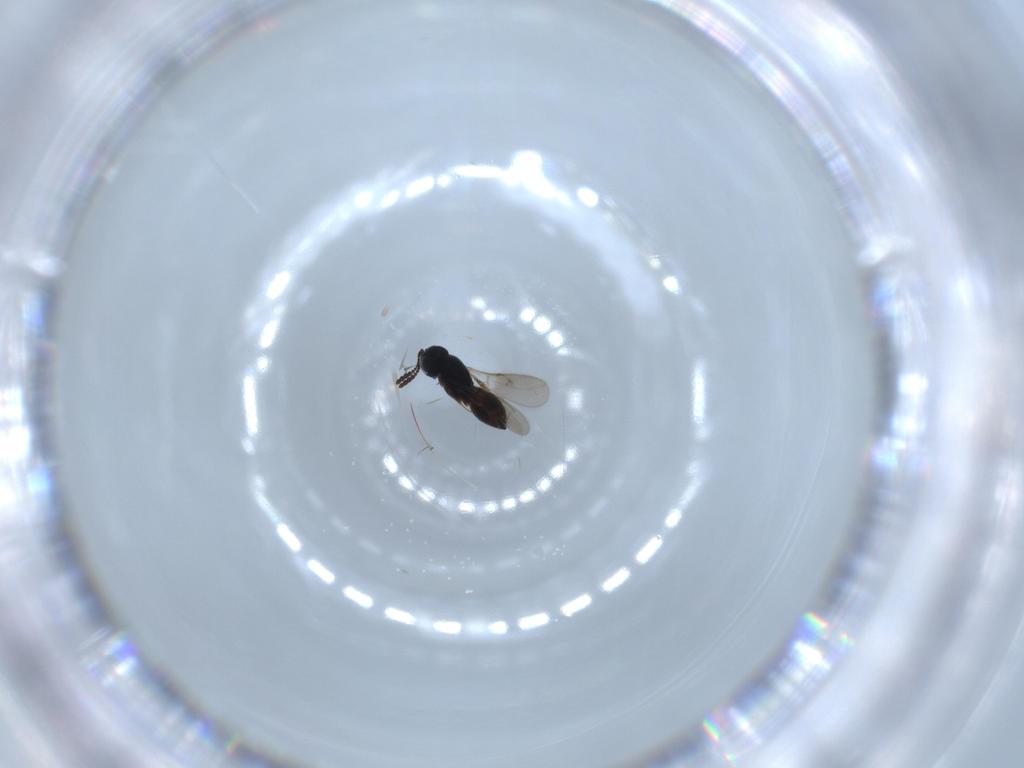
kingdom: Animalia
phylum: Arthropoda
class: Insecta
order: Hymenoptera
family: Scelionidae
